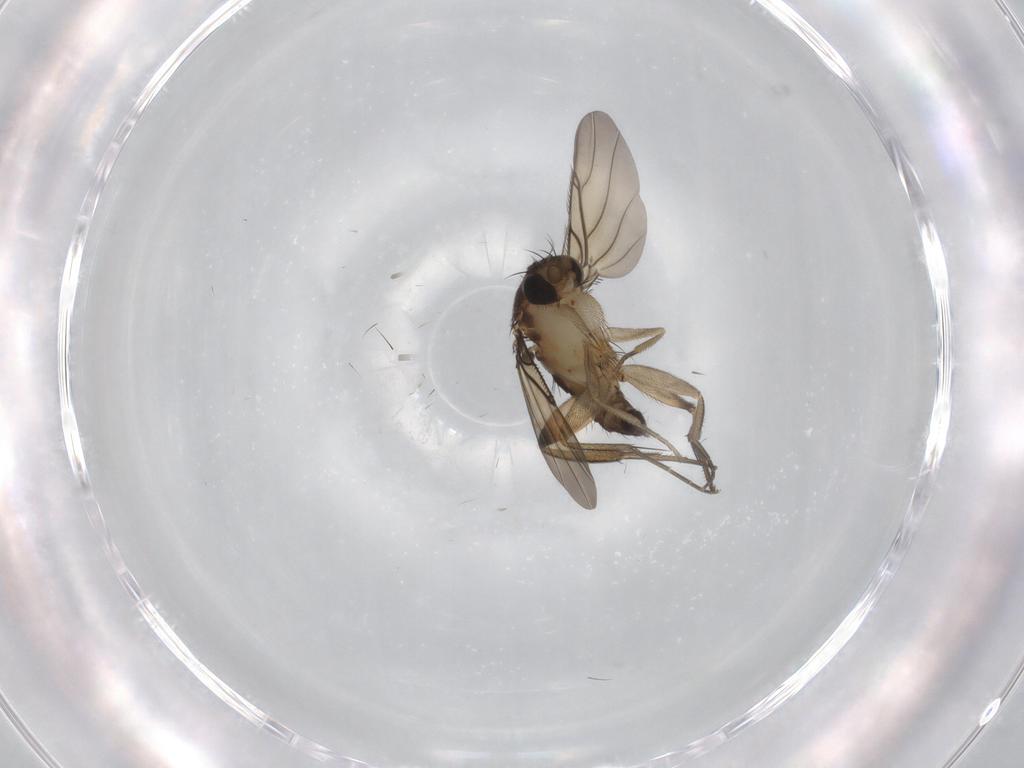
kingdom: Animalia
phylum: Arthropoda
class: Insecta
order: Diptera
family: Phoridae
